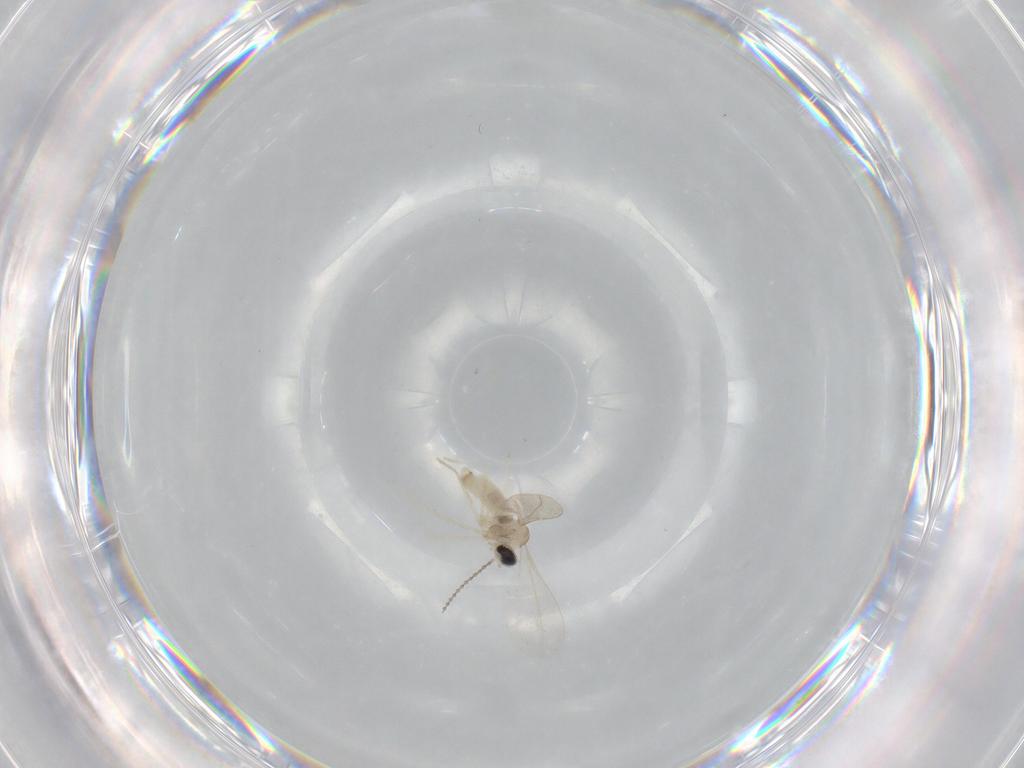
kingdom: Animalia
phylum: Arthropoda
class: Insecta
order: Diptera
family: Cecidomyiidae
